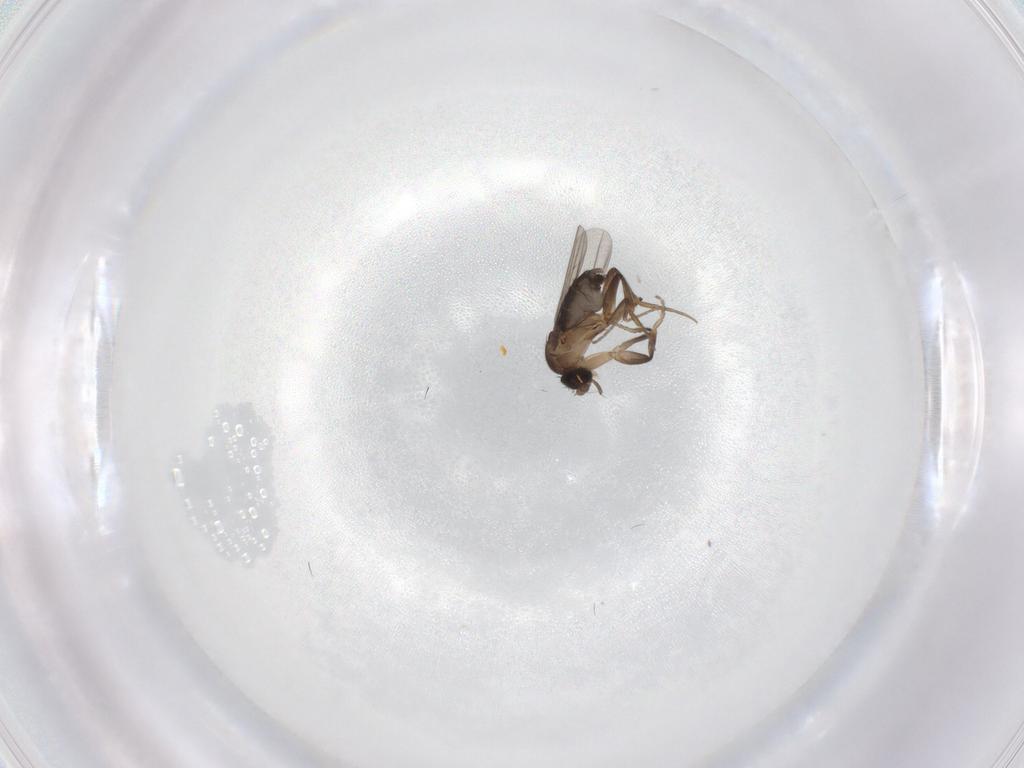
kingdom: Animalia
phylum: Arthropoda
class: Insecta
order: Diptera
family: Phoridae
